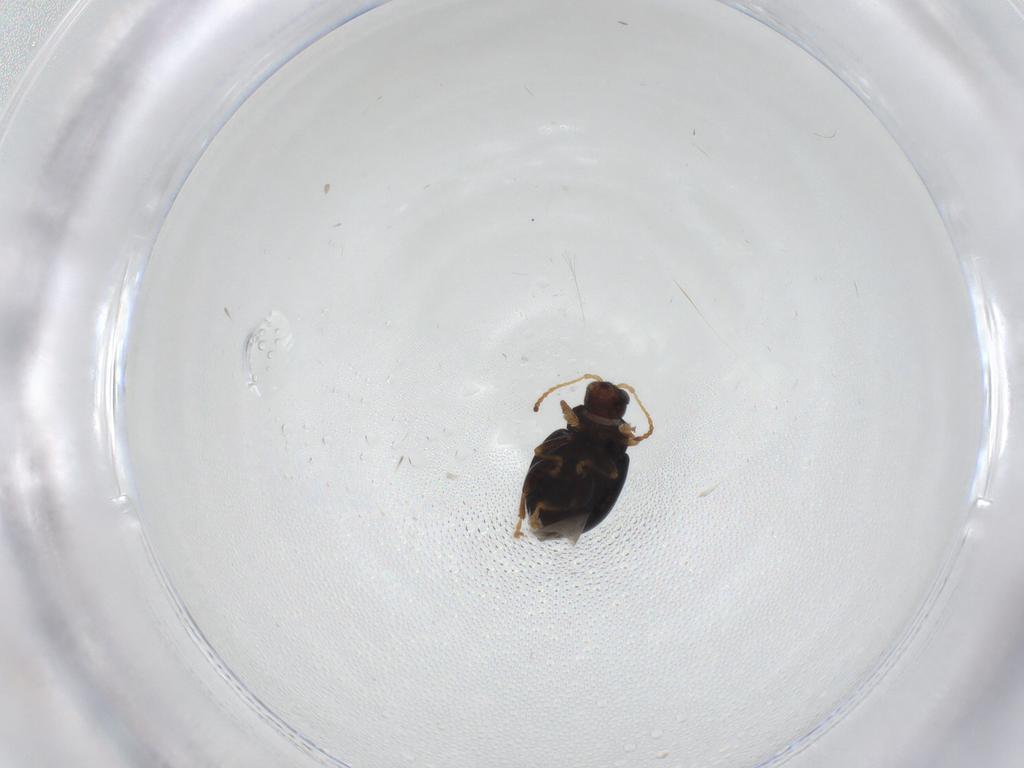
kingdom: Animalia
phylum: Arthropoda
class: Insecta
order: Coleoptera
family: Chrysomelidae
